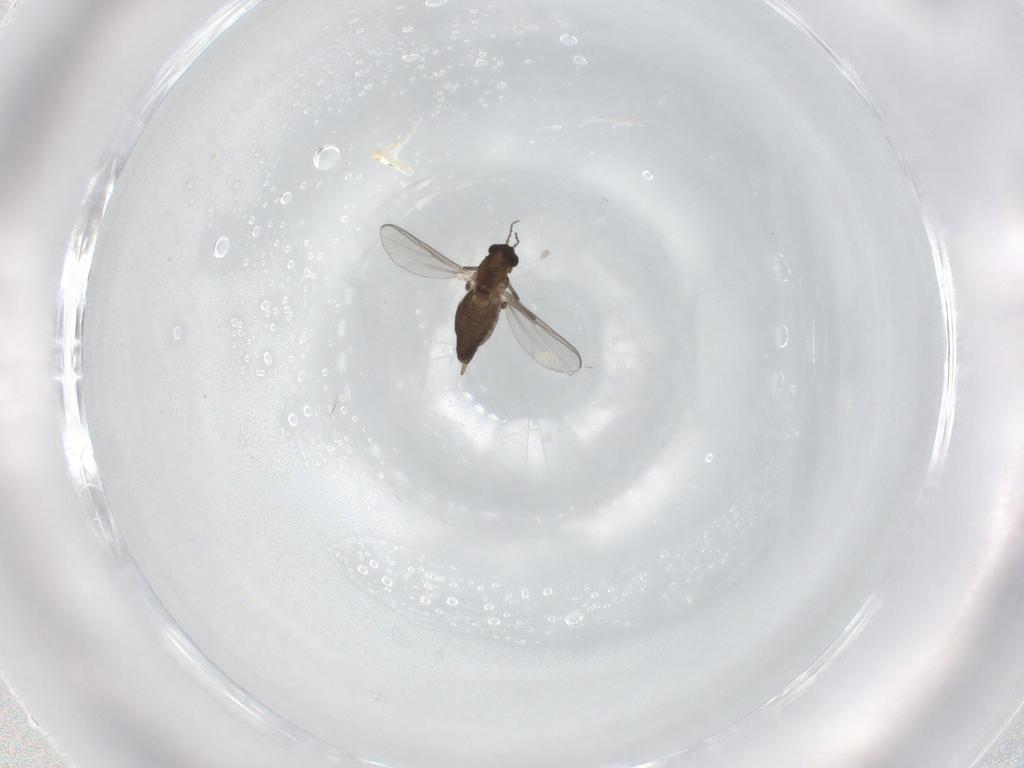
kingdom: Animalia
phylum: Arthropoda
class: Insecta
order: Diptera
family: Chironomidae
